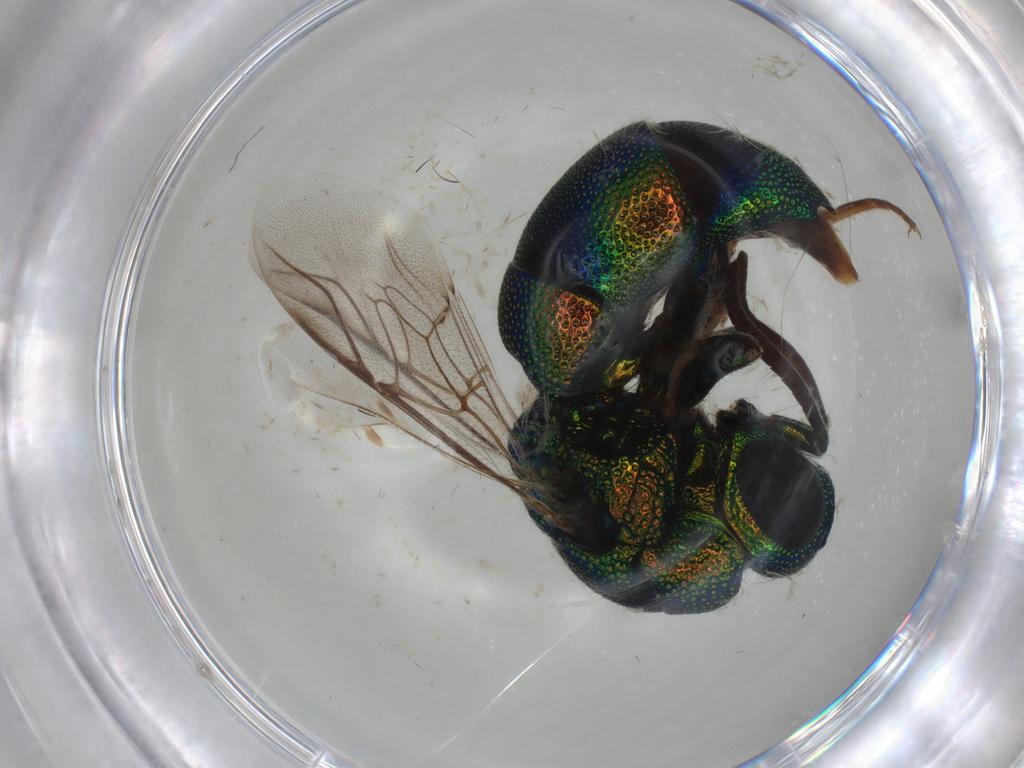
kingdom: Animalia
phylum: Arthropoda
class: Insecta
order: Hymenoptera
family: Chrysididae
